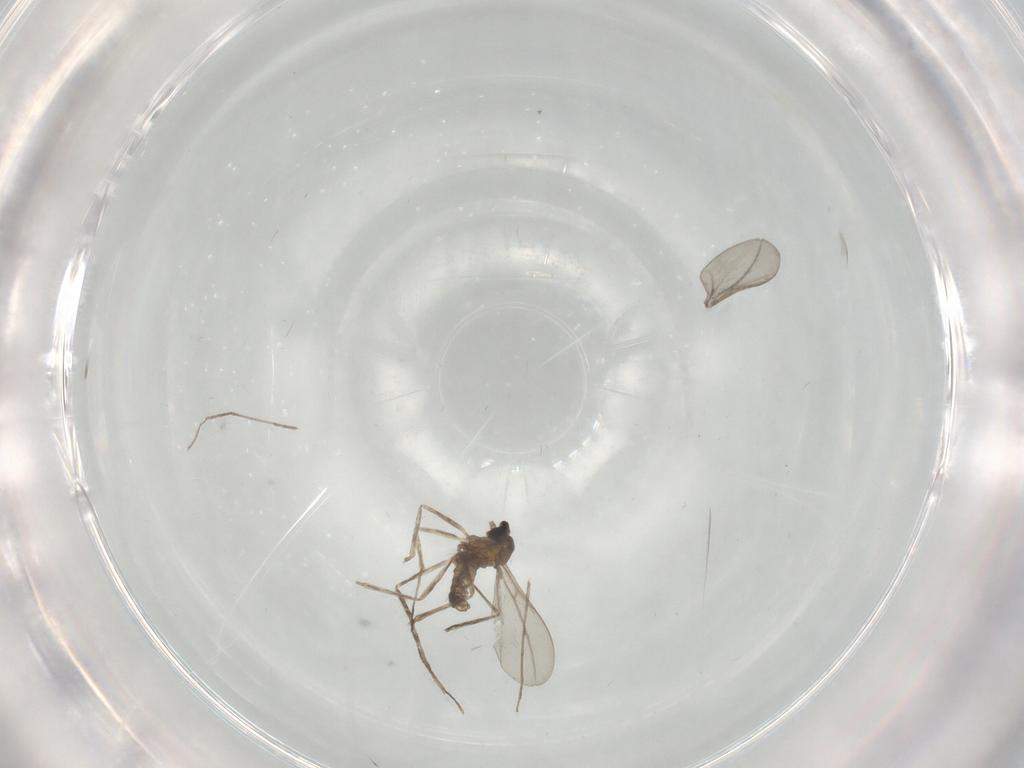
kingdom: Animalia
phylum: Arthropoda
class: Insecta
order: Diptera
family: Cecidomyiidae
